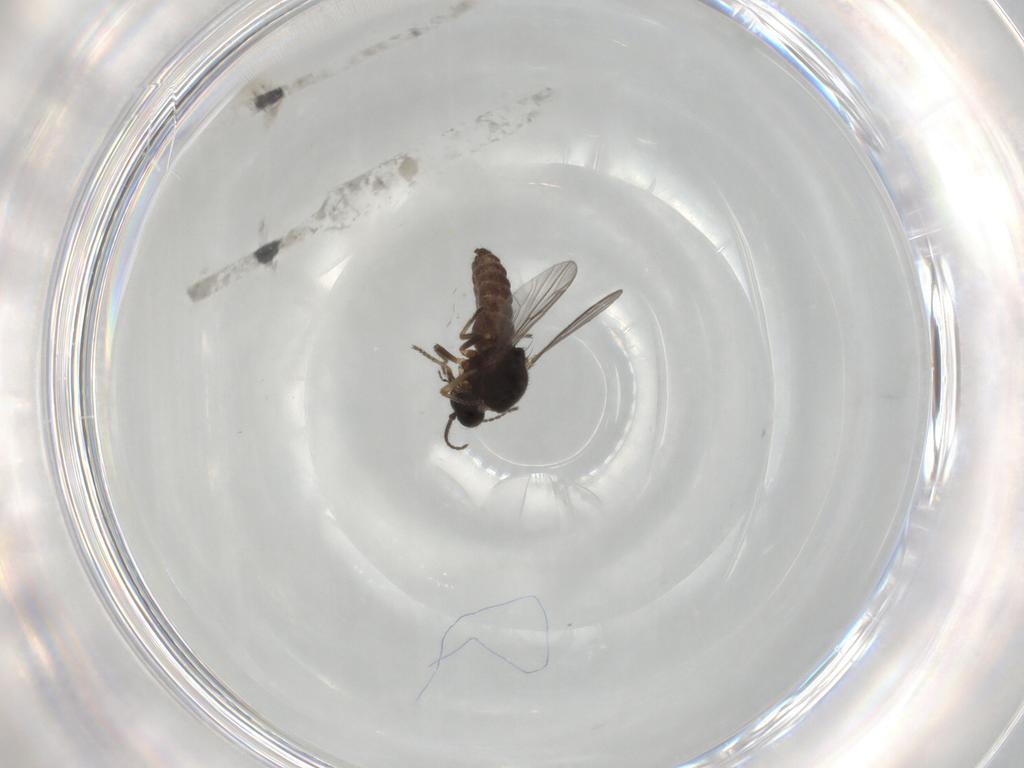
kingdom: Animalia
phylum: Arthropoda
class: Insecta
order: Diptera
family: Ceratopogonidae
